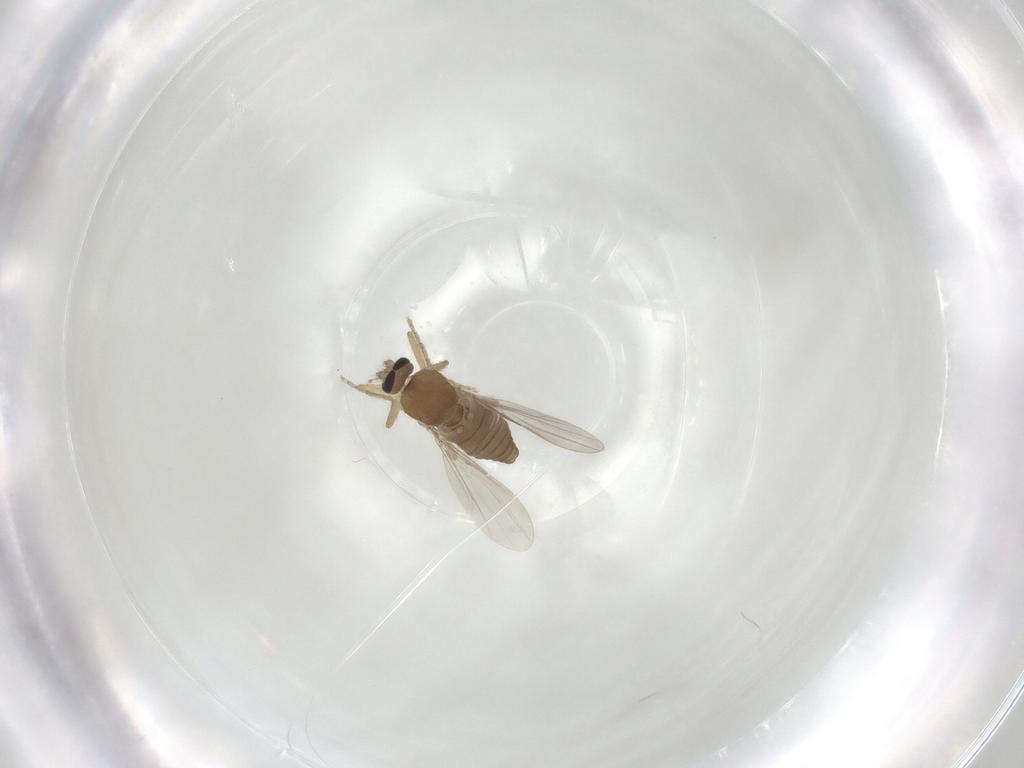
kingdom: Animalia
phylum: Arthropoda
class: Insecta
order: Diptera
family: Ceratopogonidae
